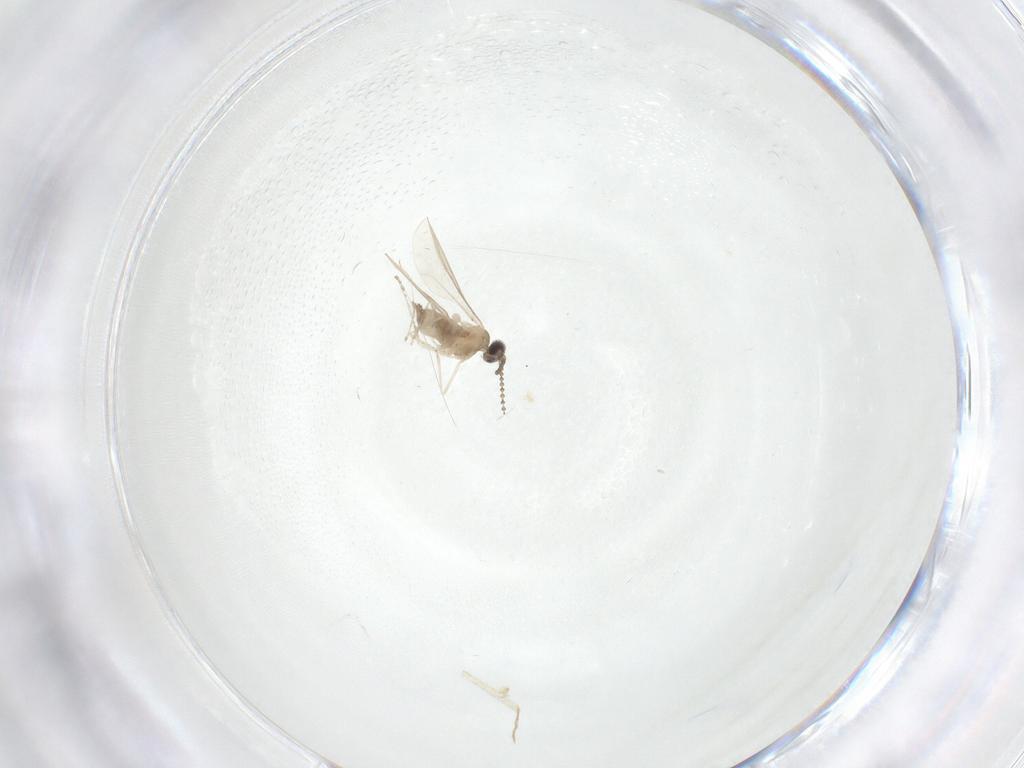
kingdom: Animalia
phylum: Arthropoda
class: Insecta
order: Diptera
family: Cecidomyiidae
